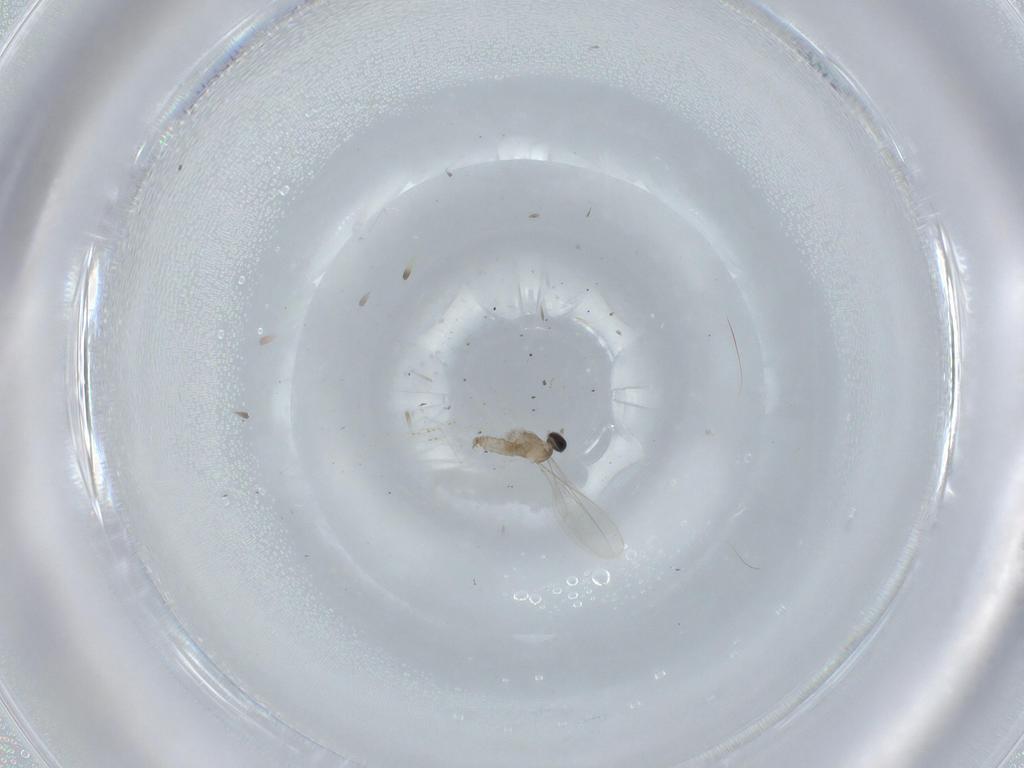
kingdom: Animalia
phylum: Arthropoda
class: Insecta
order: Diptera
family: Cecidomyiidae
